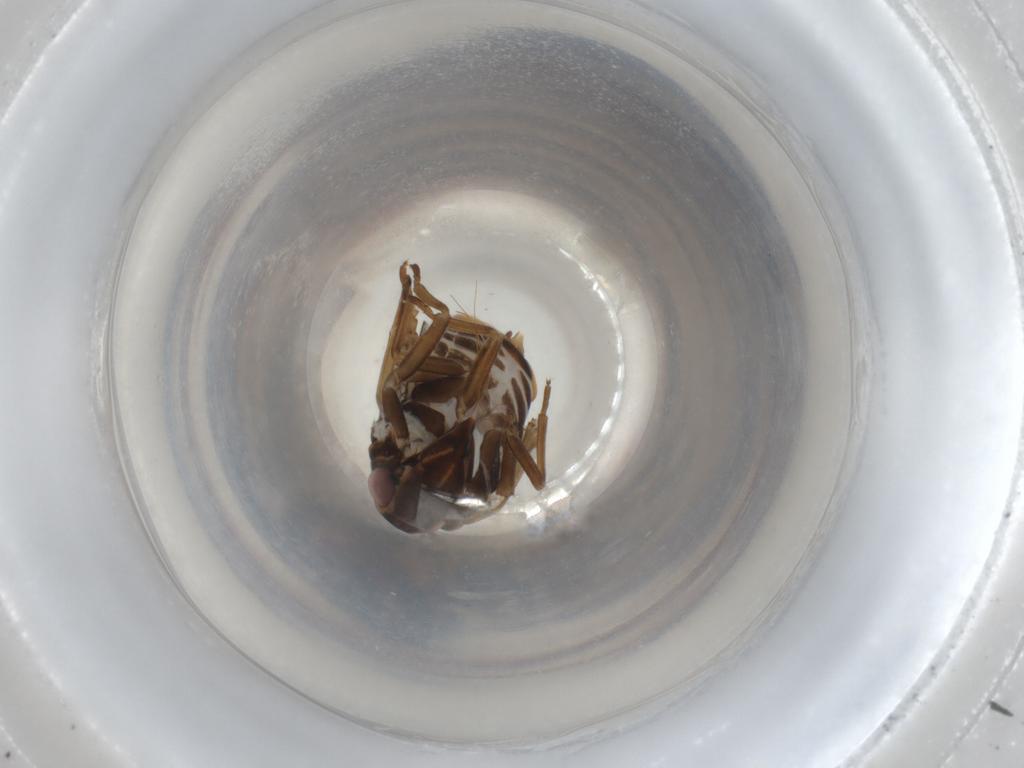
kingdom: Animalia
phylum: Arthropoda
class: Insecta
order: Hemiptera
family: Cixiidae
